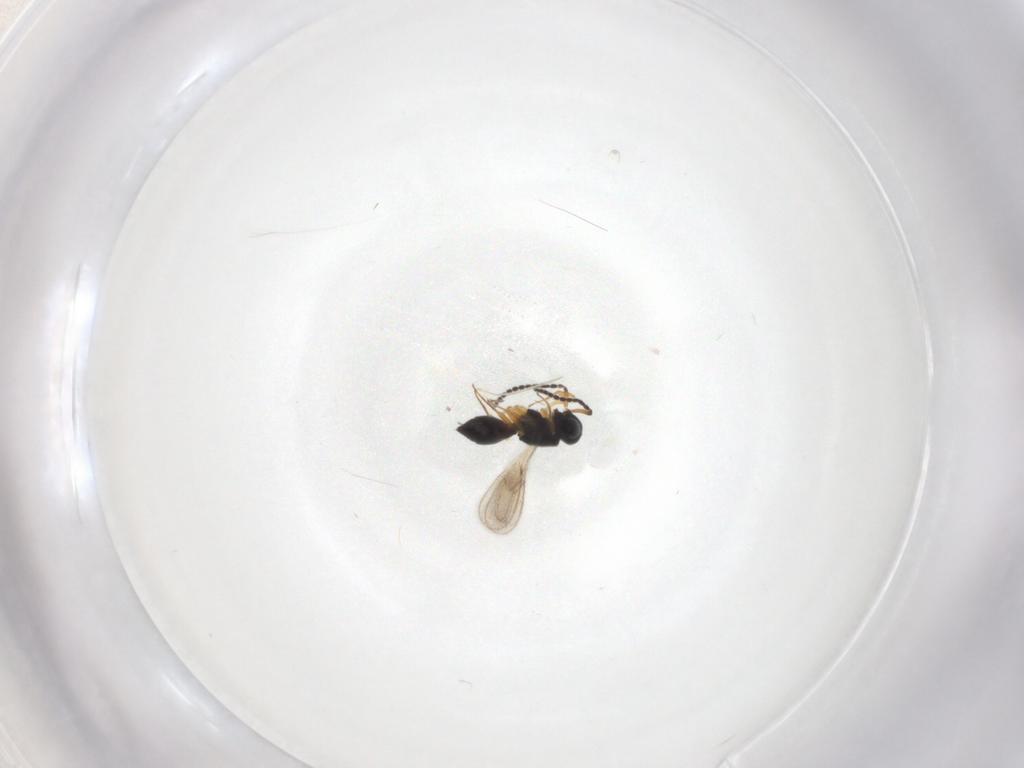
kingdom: Animalia
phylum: Arthropoda
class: Insecta
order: Hymenoptera
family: Scelionidae
